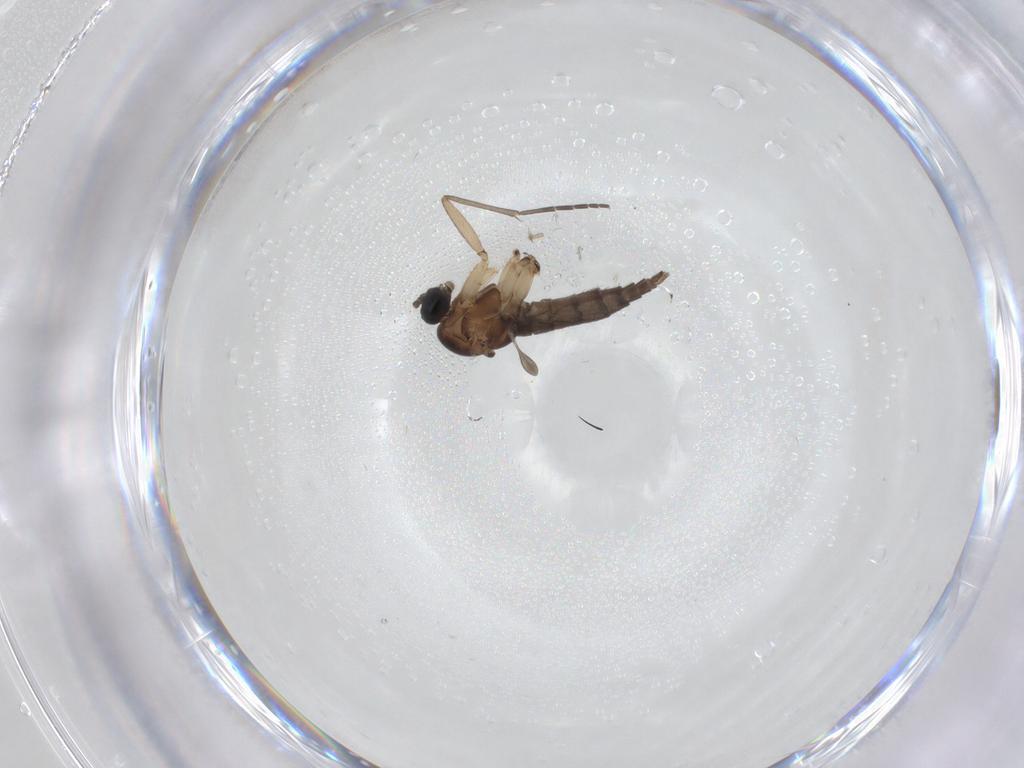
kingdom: Animalia
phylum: Arthropoda
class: Insecta
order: Diptera
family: Sciaridae
